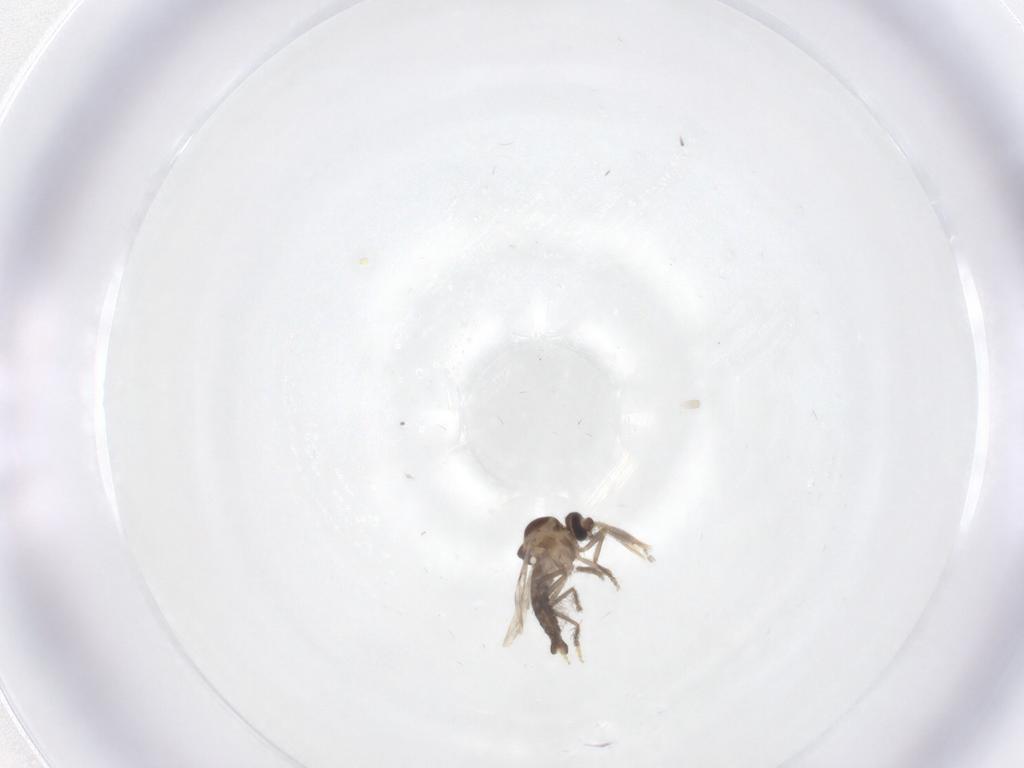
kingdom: Animalia
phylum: Arthropoda
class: Insecta
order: Diptera
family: Ceratopogonidae
